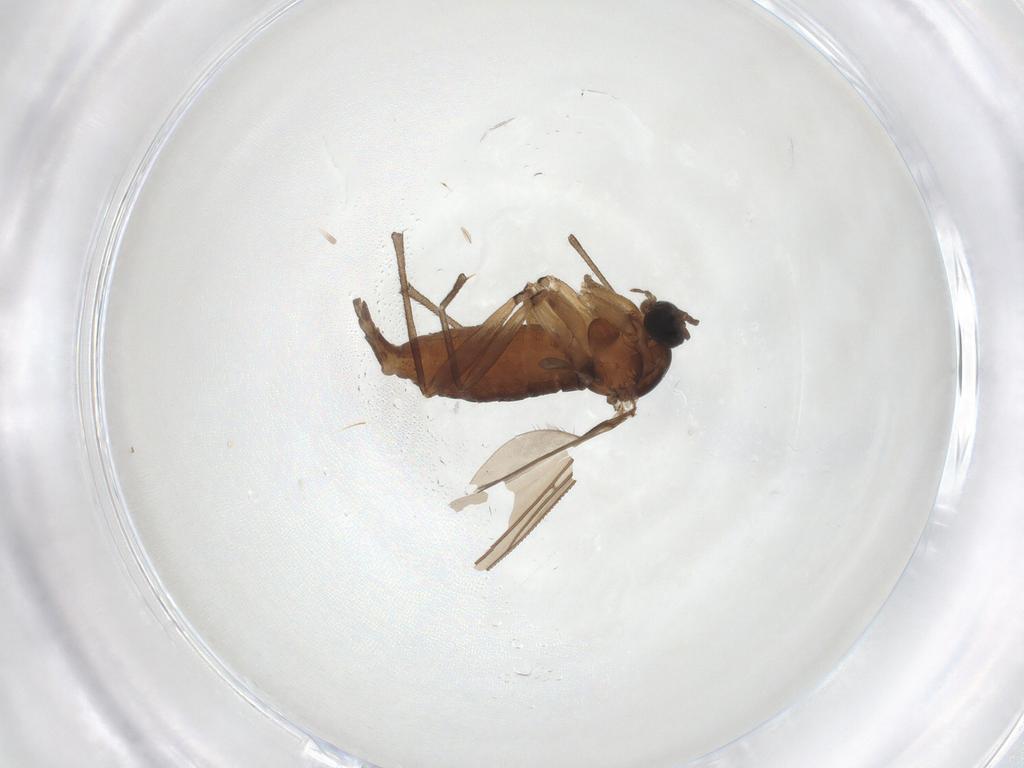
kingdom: Animalia
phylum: Arthropoda
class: Insecta
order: Diptera
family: Sciaridae
